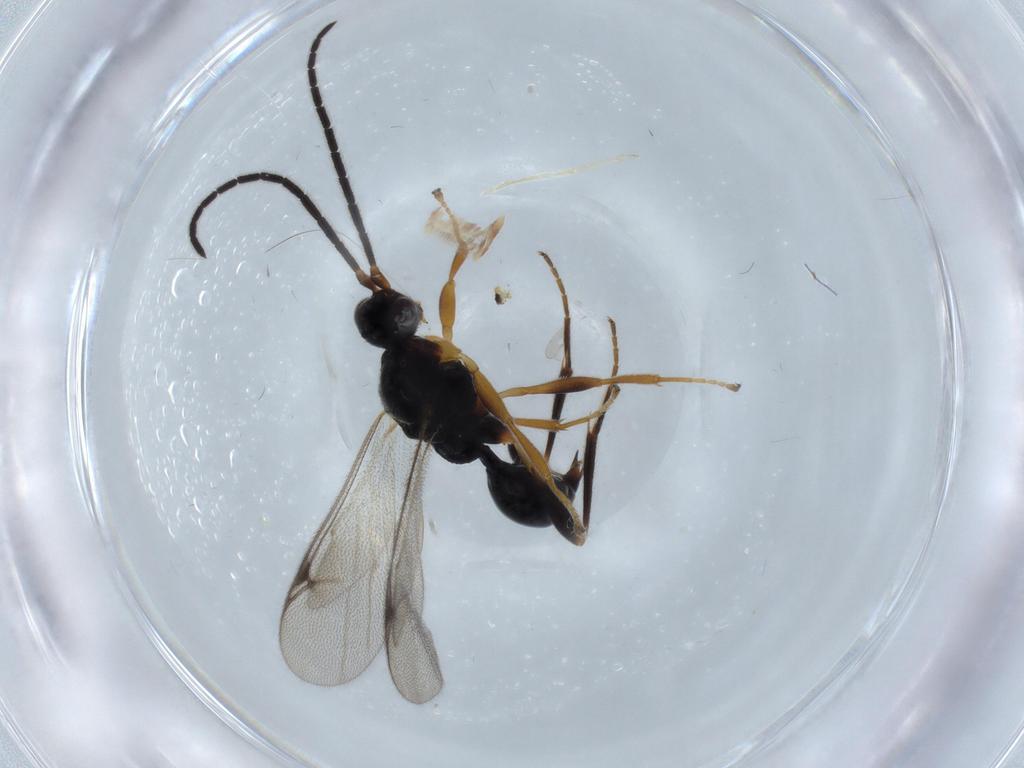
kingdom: Animalia
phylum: Arthropoda
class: Insecta
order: Hymenoptera
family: Proctotrupidae
